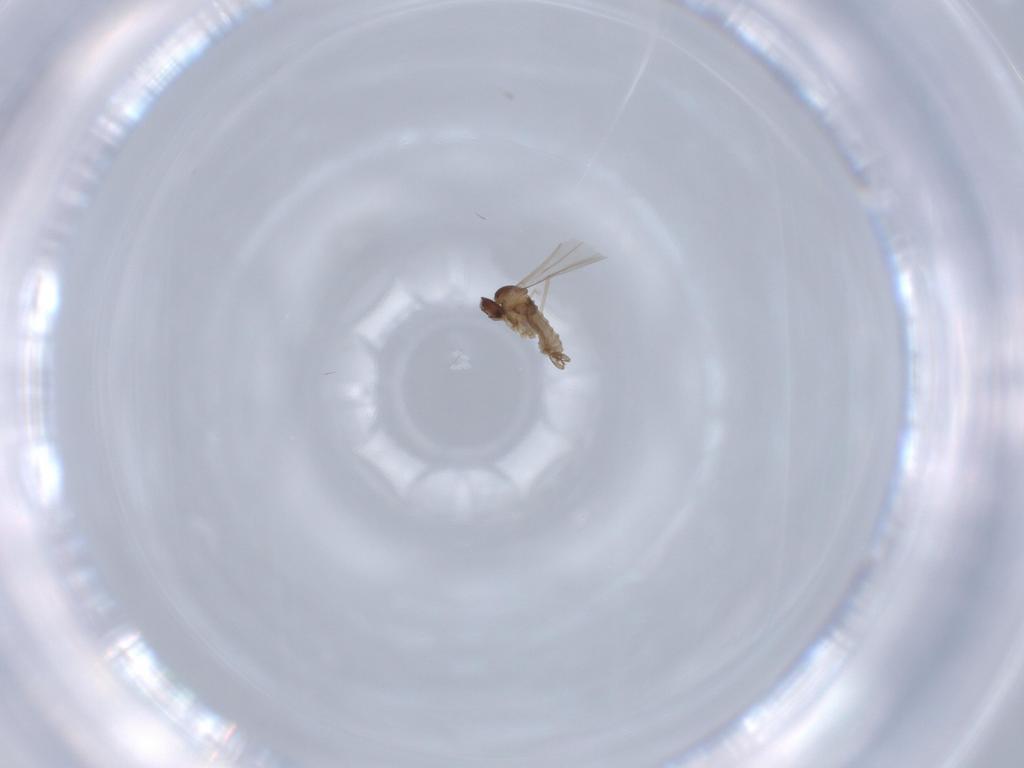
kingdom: Animalia
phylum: Arthropoda
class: Insecta
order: Diptera
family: Cecidomyiidae
